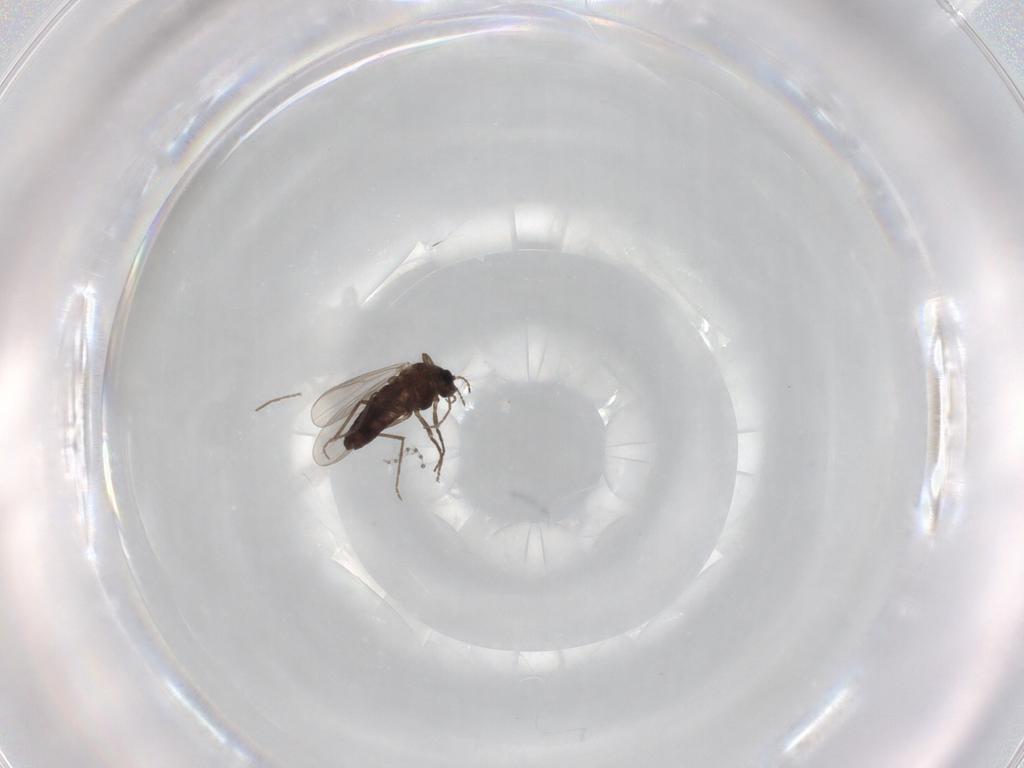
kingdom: Animalia
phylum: Arthropoda
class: Insecta
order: Diptera
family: Chironomidae
